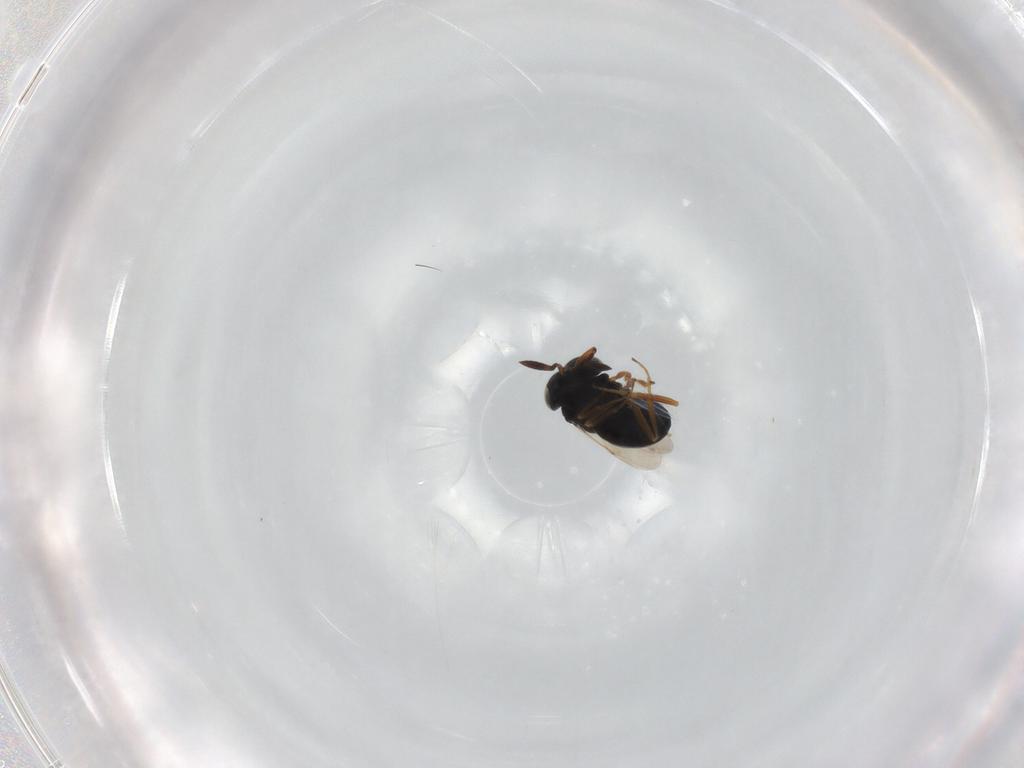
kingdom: Animalia
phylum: Arthropoda
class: Insecta
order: Hymenoptera
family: Scelionidae
